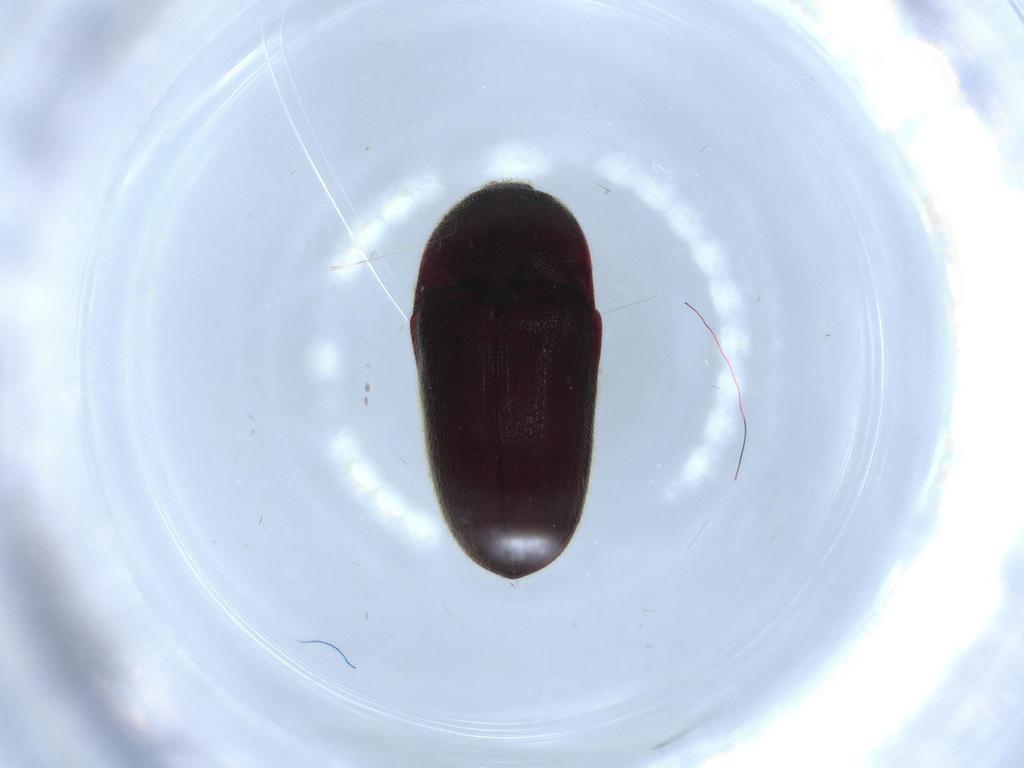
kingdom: Animalia
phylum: Arthropoda
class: Insecta
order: Coleoptera
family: Throscidae
